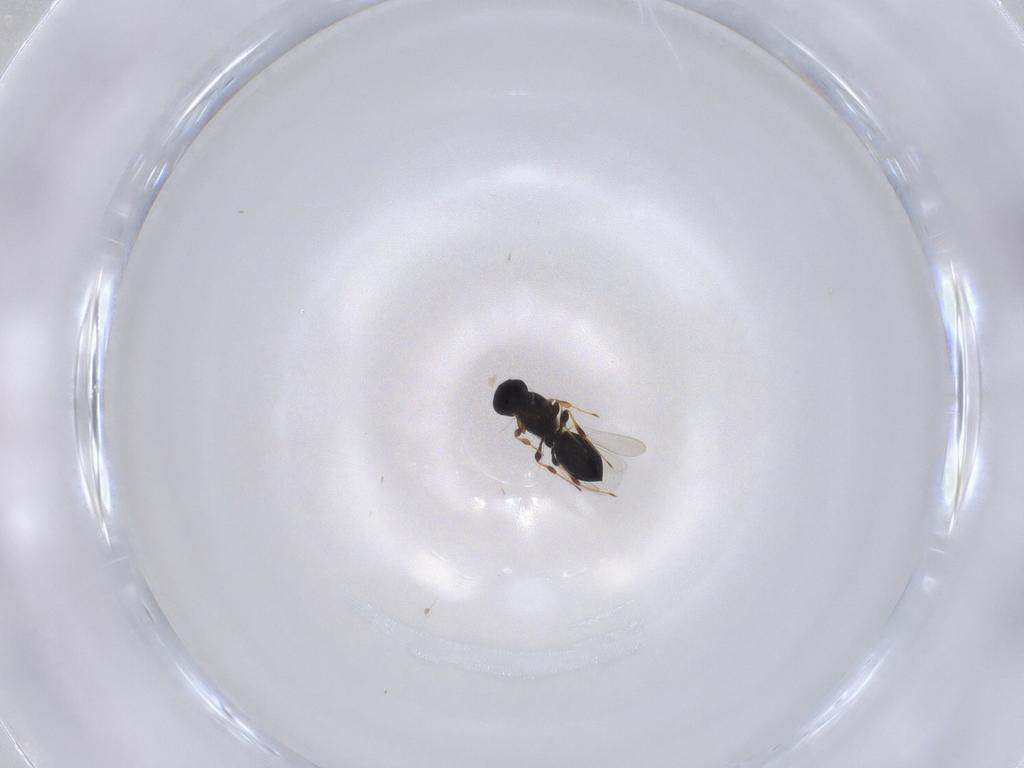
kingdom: Animalia
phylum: Arthropoda
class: Insecta
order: Hymenoptera
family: Platygastridae
